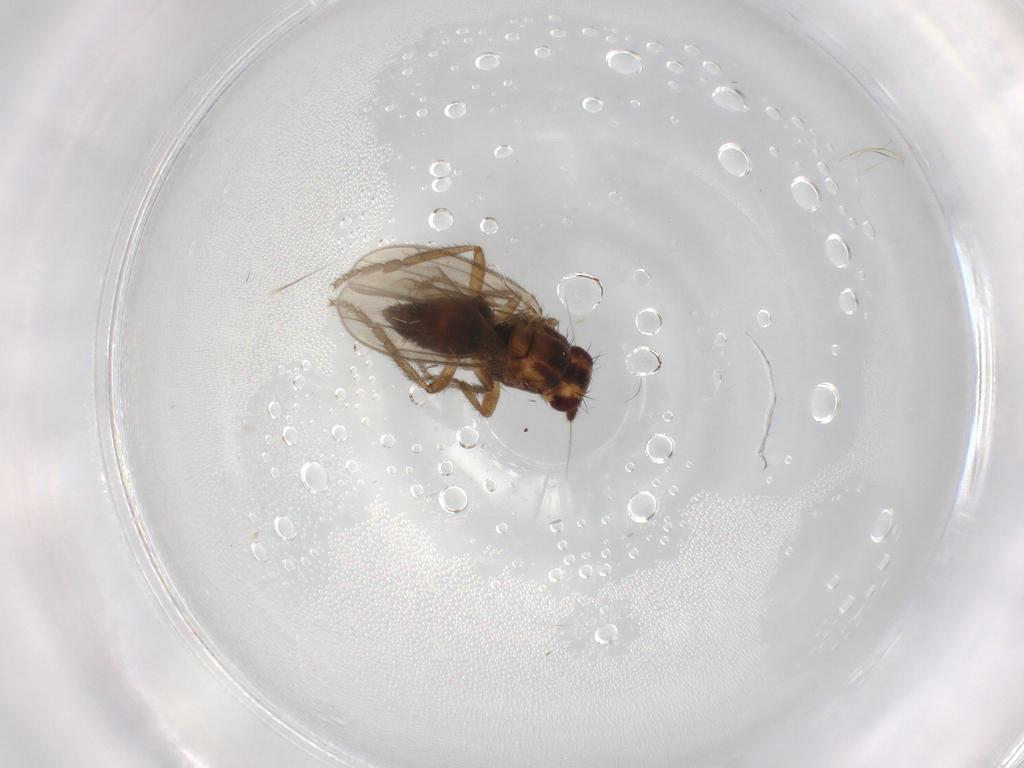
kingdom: Animalia
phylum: Arthropoda
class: Insecta
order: Diptera
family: Sphaeroceridae
